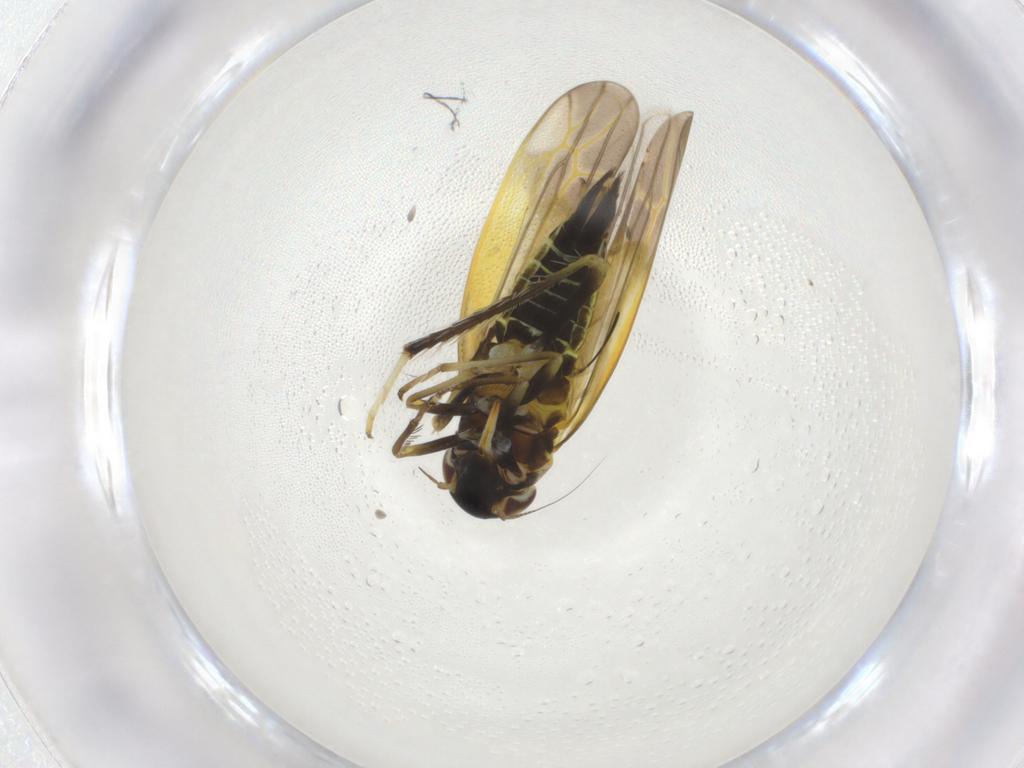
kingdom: Animalia
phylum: Arthropoda
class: Insecta
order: Hemiptera
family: Cicadellidae
